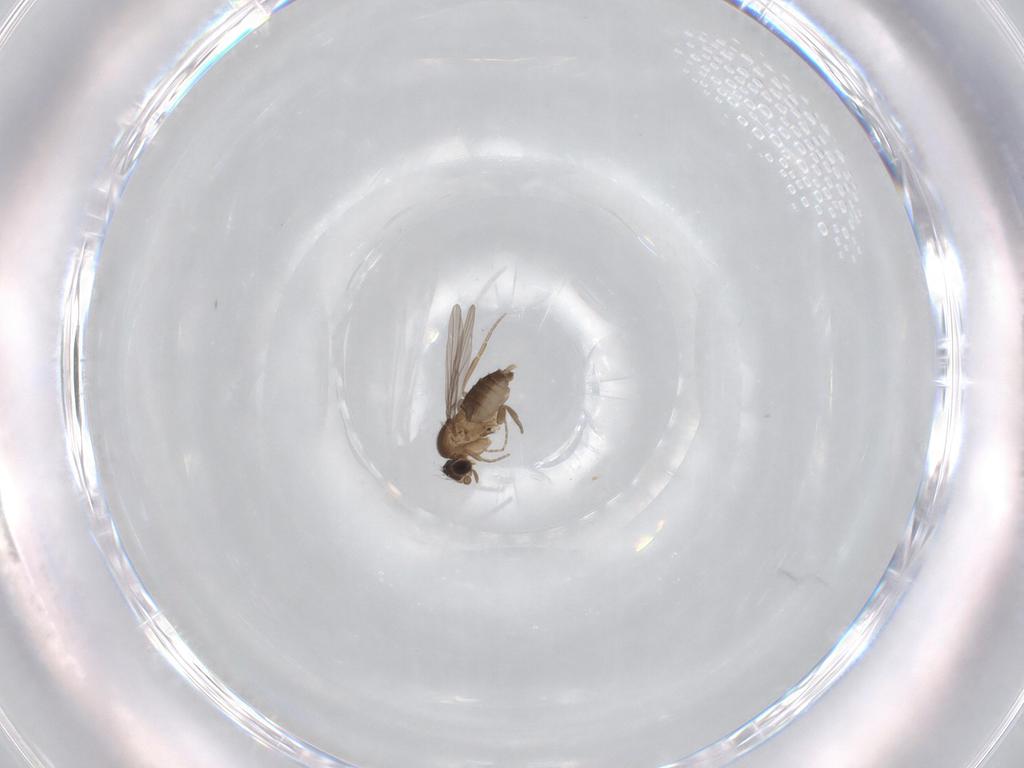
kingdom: Animalia
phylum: Arthropoda
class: Insecta
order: Diptera
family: Phoridae
